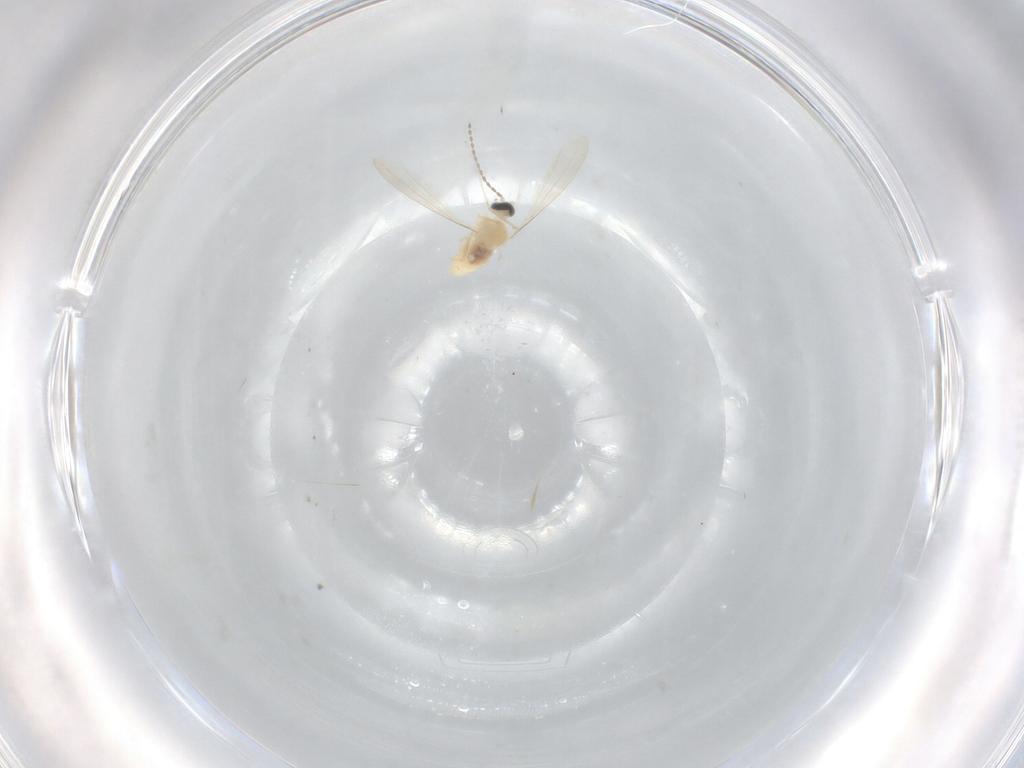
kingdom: Animalia
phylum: Arthropoda
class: Insecta
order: Diptera
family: Cecidomyiidae
